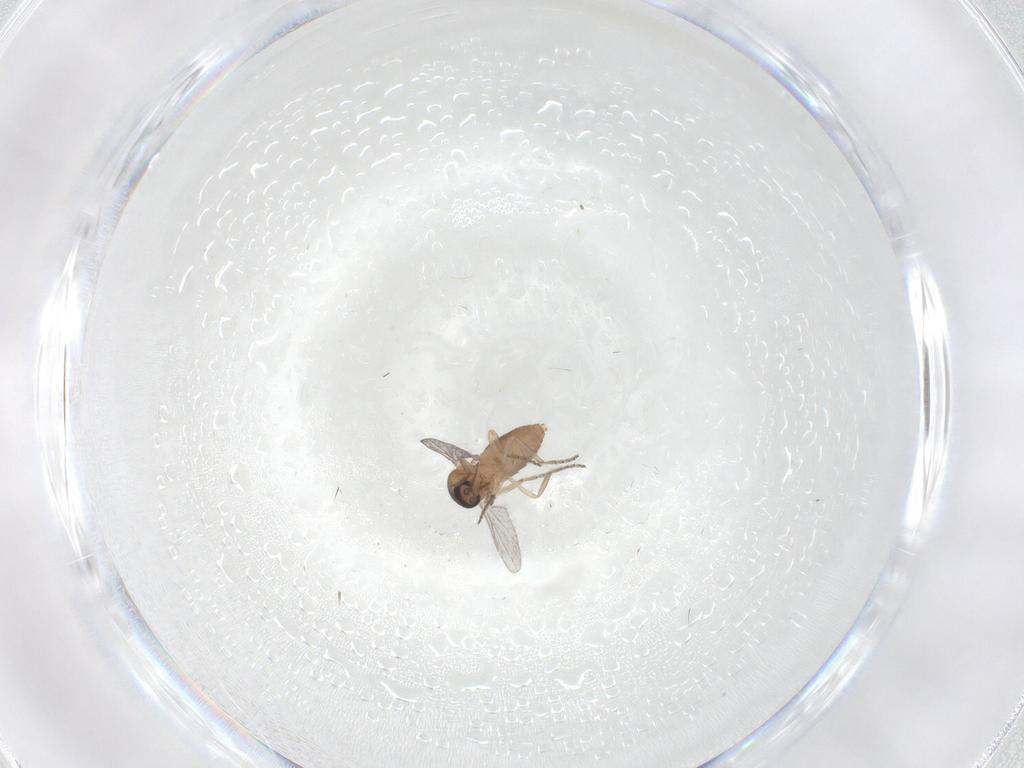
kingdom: Animalia
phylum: Arthropoda
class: Insecta
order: Diptera
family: Ceratopogonidae
